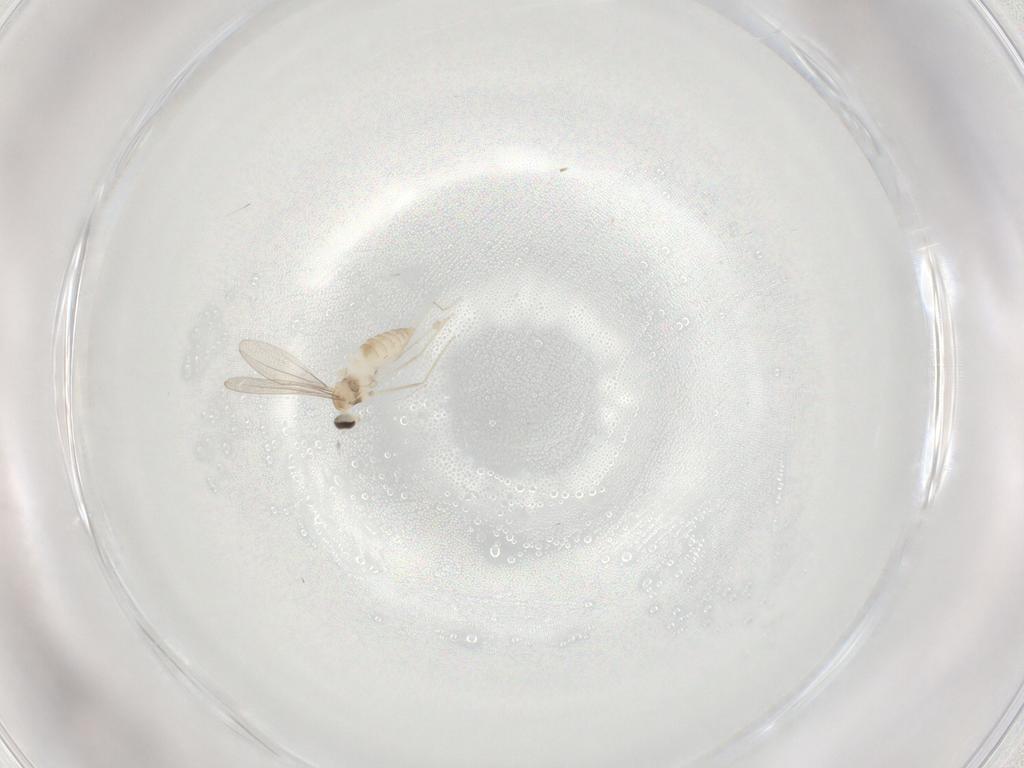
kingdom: Animalia
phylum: Arthropoda
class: Insecta
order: Diptera
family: Cecidomyiidae
